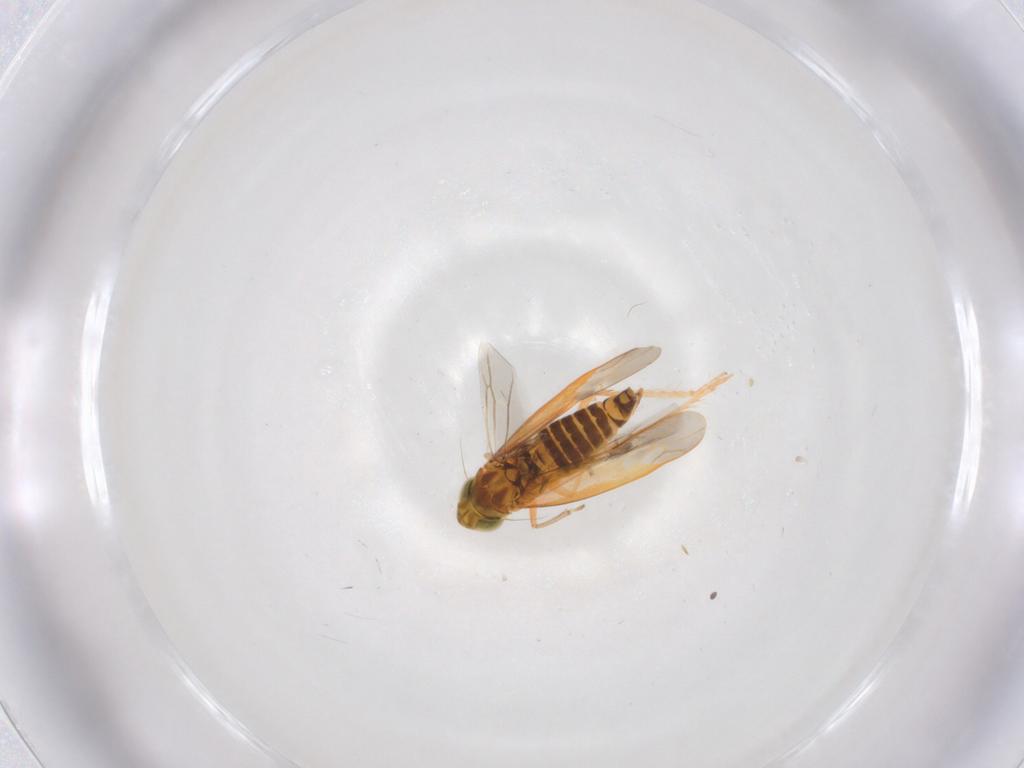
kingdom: Animalia
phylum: Arthropoda
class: Insecta
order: Hemiptera
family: Cicadellidae
